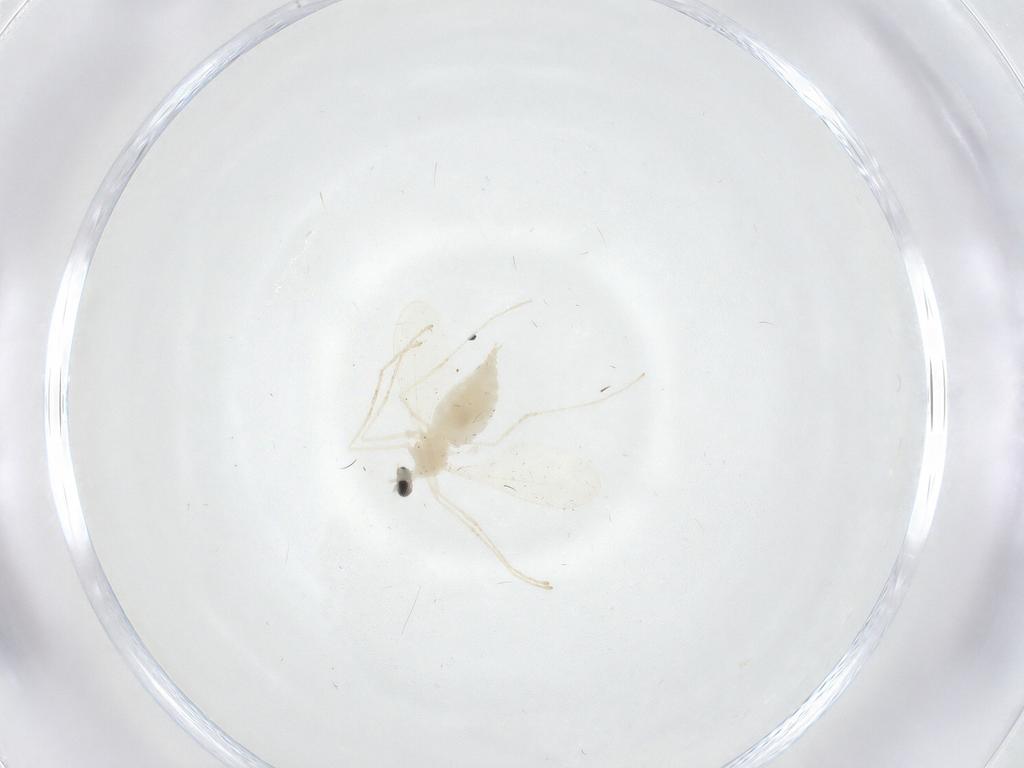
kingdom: Animalia
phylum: Arthropoda
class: Insecta
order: Diptera
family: Cecidomyiidae
